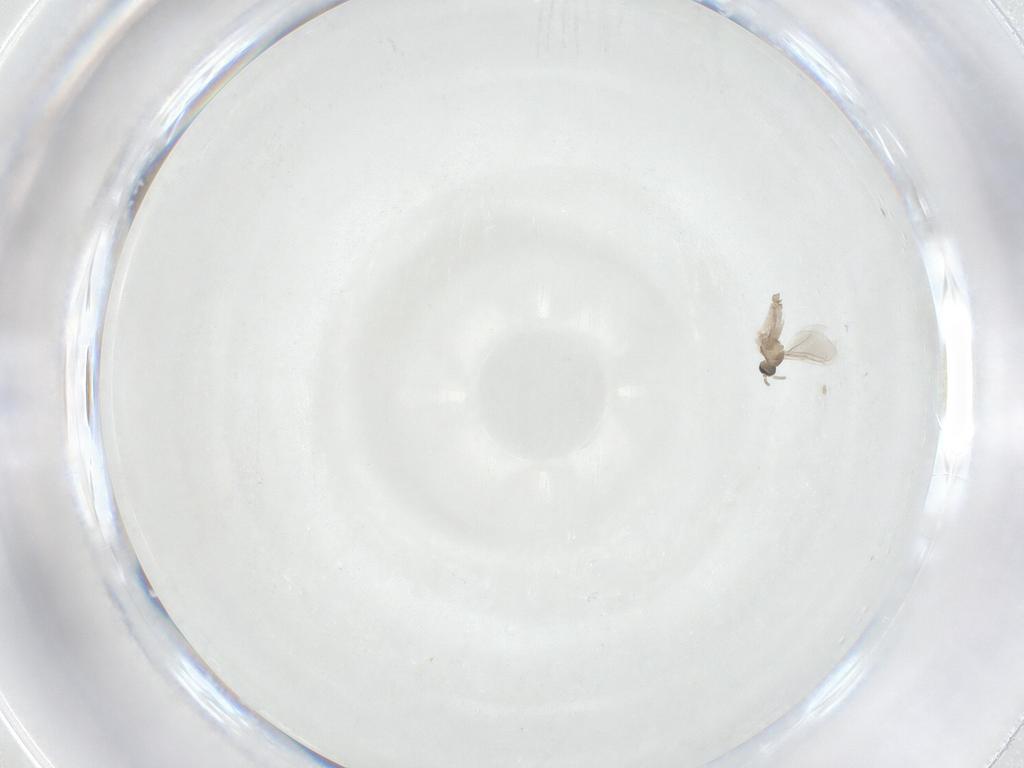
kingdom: Animalia
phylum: Arthropoda
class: Insecta
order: Diptera
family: Cecidomyiidae
